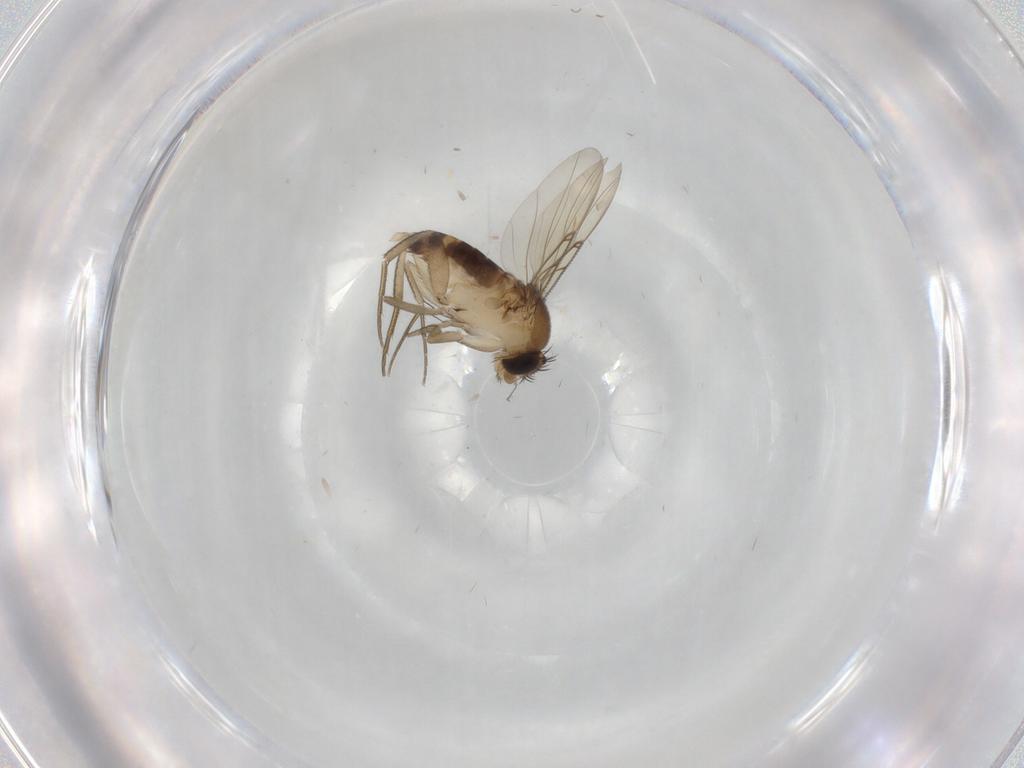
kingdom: Animalia
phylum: Arthropoda
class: Insecta
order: Diptera
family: Phoridae
